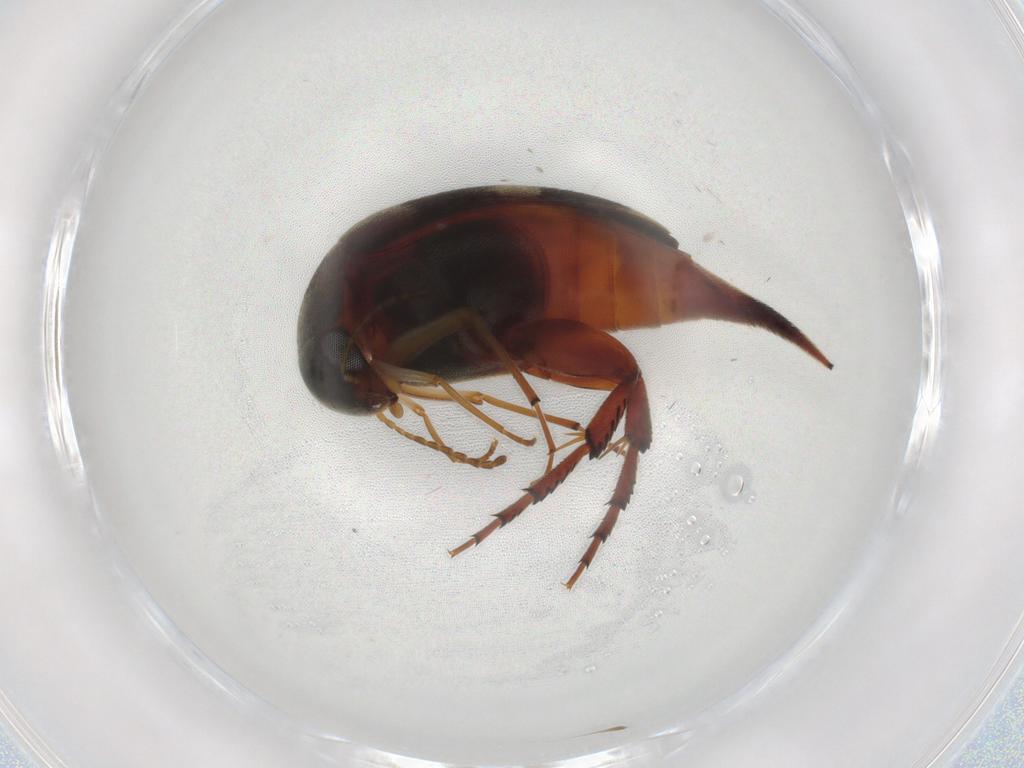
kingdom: Animalia
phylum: Arthropoda
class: Insecta
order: Coleoptera
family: Mordellidae
